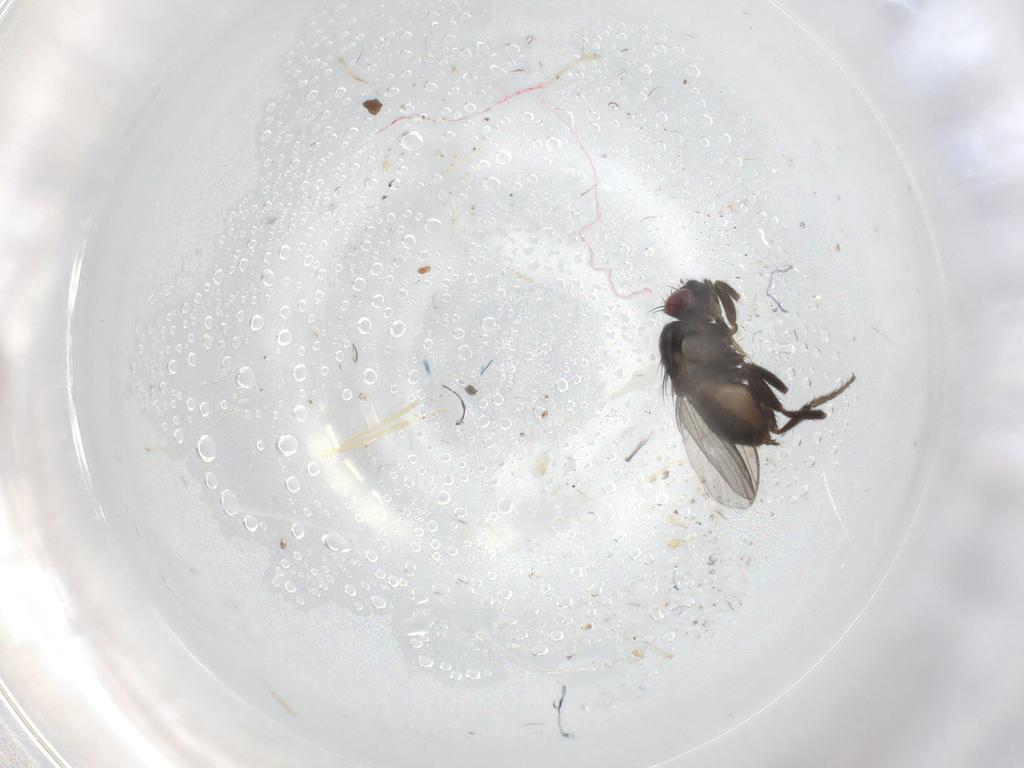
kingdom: Animalia
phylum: Arthropoda
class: Insecta
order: Diptera
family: Chironomidae
